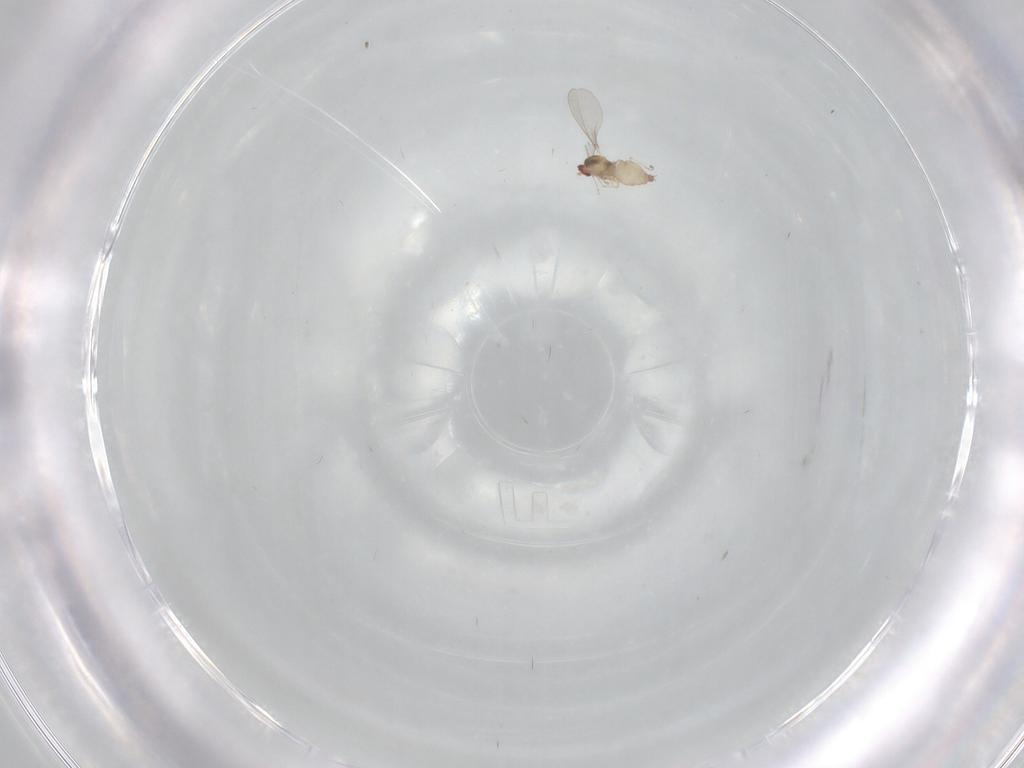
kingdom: Animalia
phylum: Arthropoda
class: Insecta
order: Diptera
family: Cecidomyiidae
